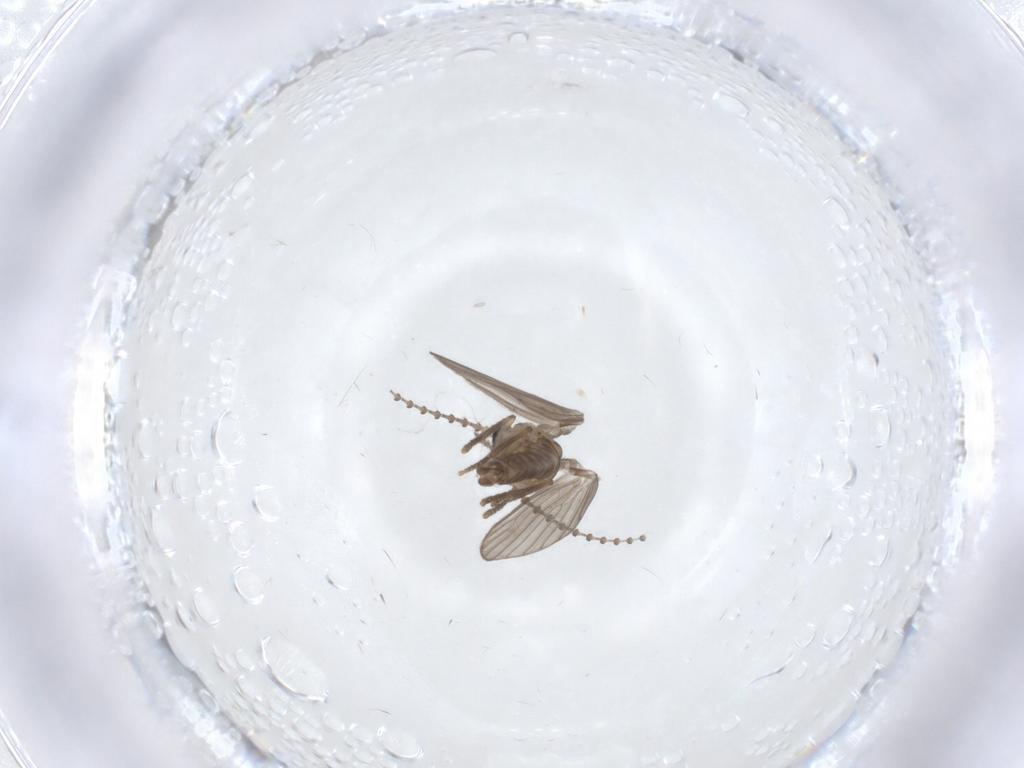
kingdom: Animalia
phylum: Arthropoda
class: Insecta
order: Diptera
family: Psychodidae
